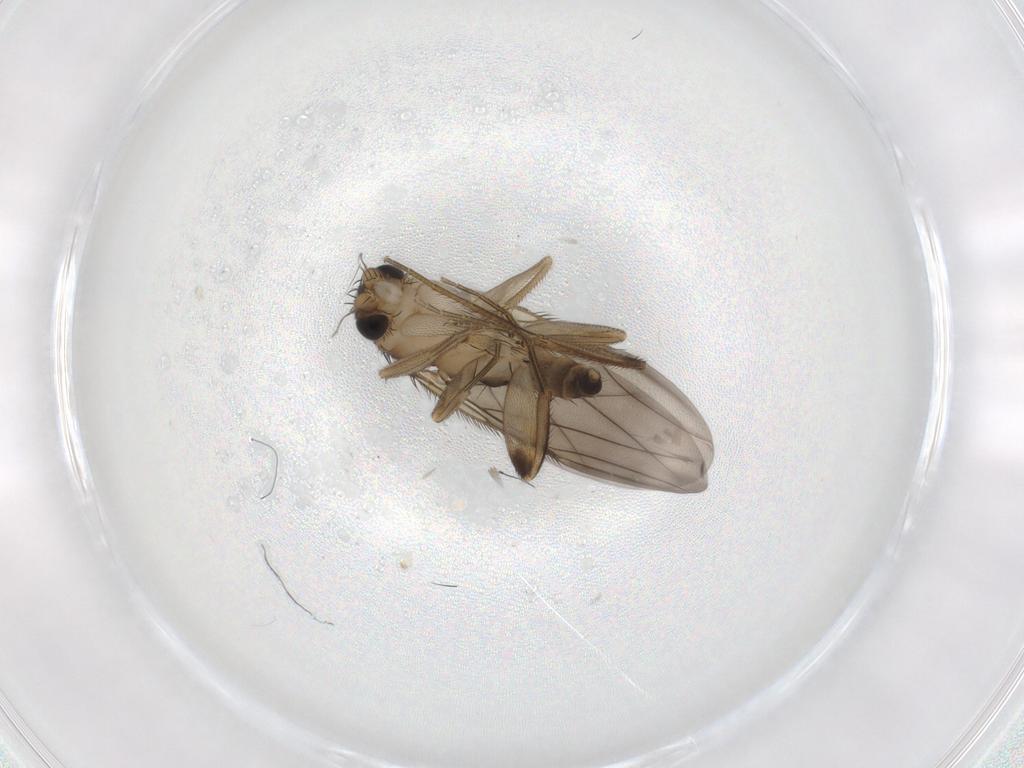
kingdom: Animalia
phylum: Arthropoda
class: Insecta
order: Diptera
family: Phoridae
